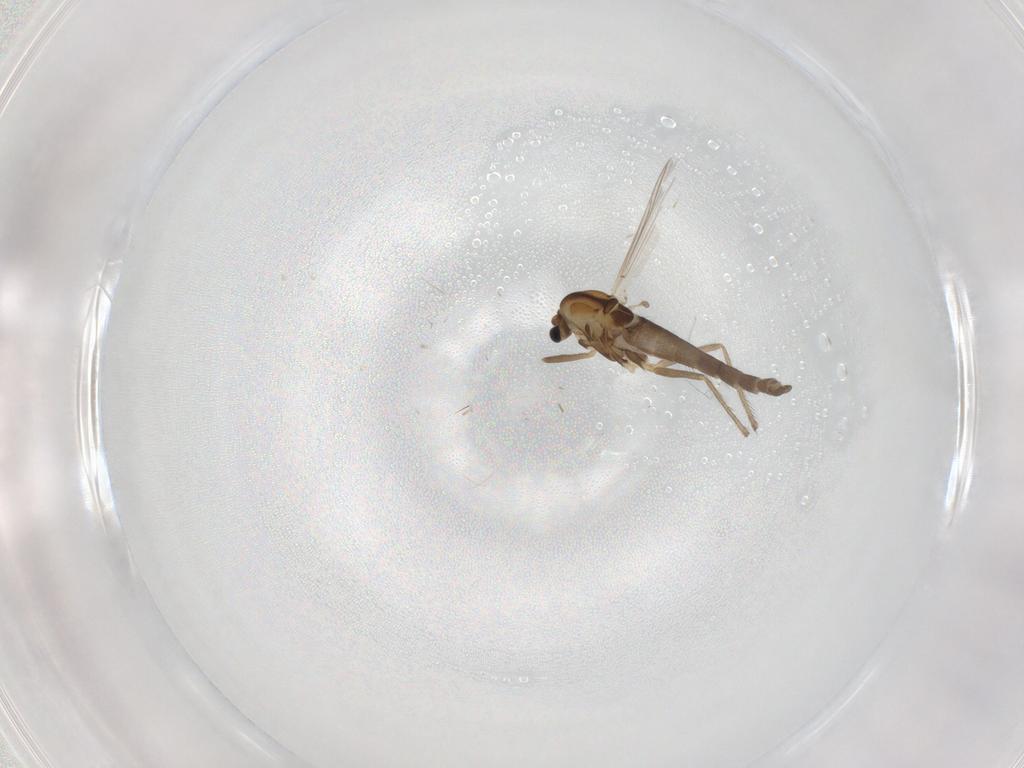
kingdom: Animalia
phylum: Arthropoda
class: Insecta
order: Diptera
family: Chironomidae
